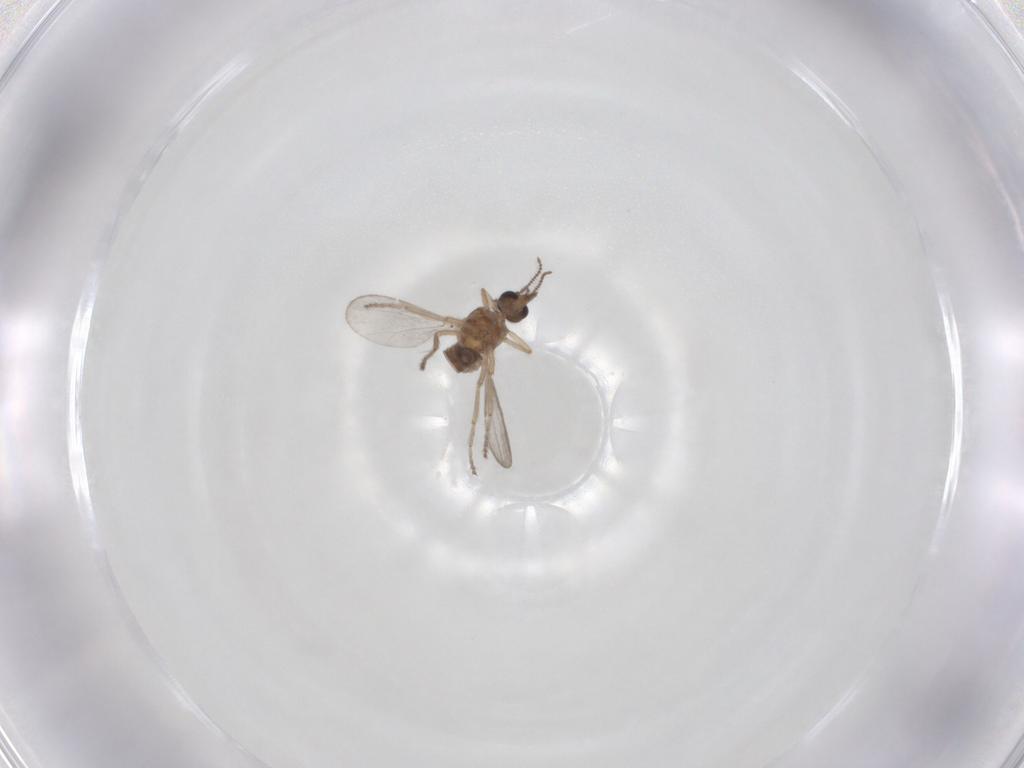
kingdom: Animalia
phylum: Arthropoda
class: Insecta
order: Diptera
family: Ceratopogonidae
